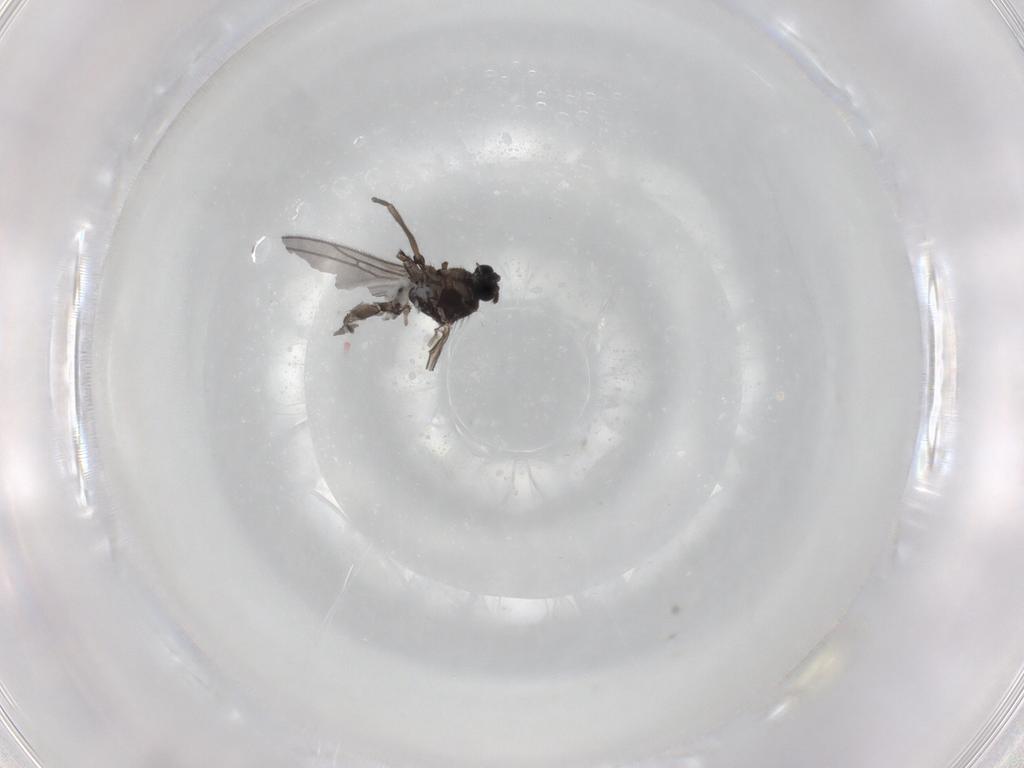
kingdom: Animalia
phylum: Arthropoda
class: Insecta
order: Diptera
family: Sciaridae
